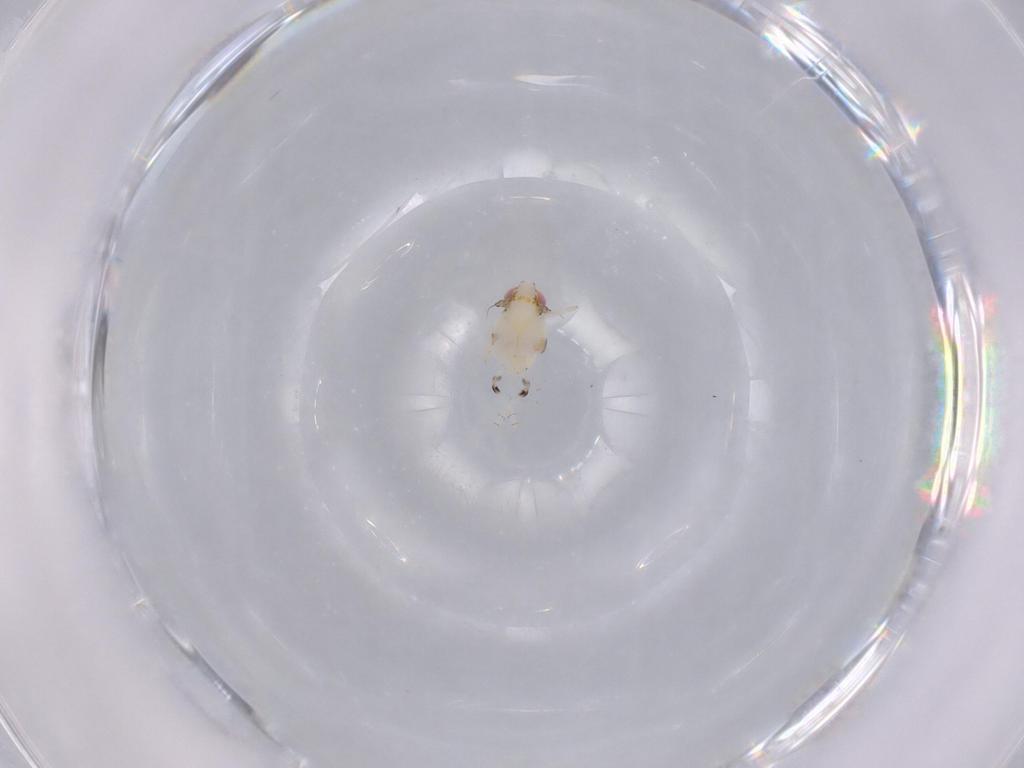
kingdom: Animalia
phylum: Arthropoda
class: Insecta
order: Hemiptera
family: Nogodinidae
